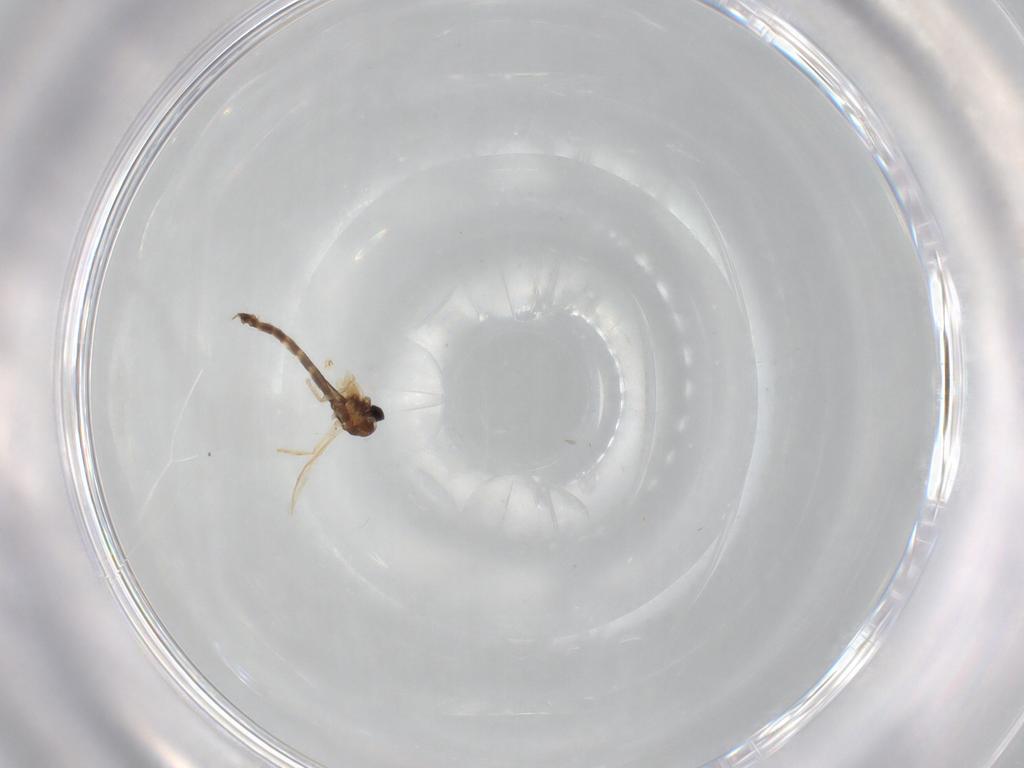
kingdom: Animalia
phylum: Arthropoda
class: Insecta
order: Diptera
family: Chironomidae
